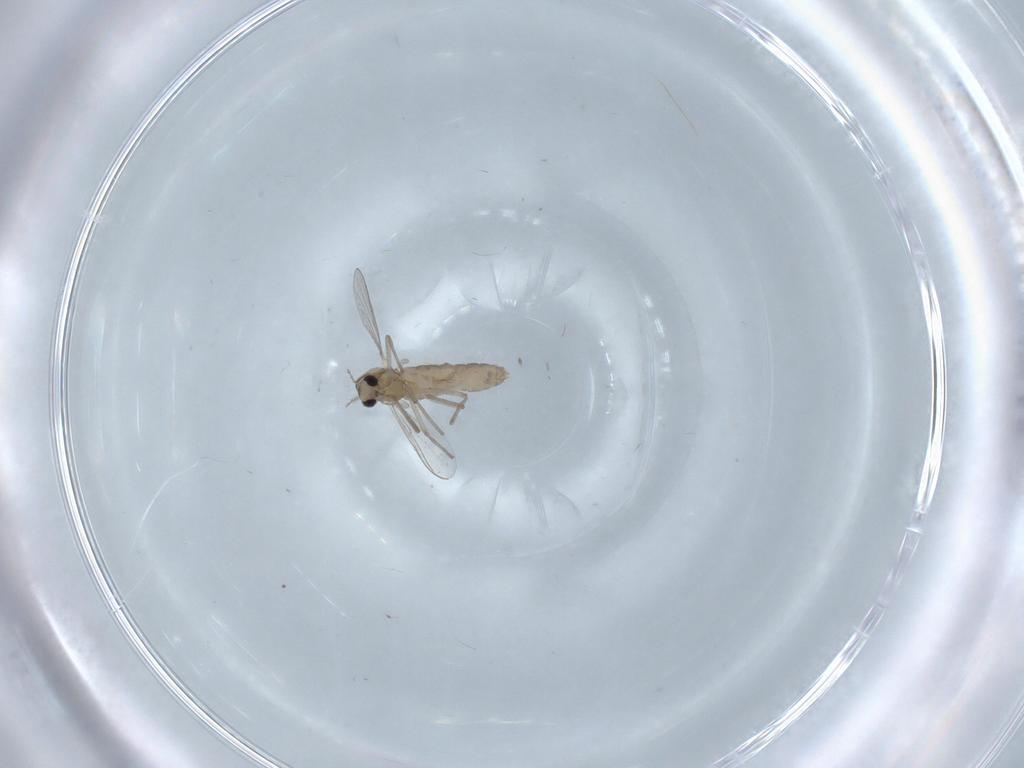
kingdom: Animalia
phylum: Arthropoda
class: Insecta
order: Diptera
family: Chironomidae
